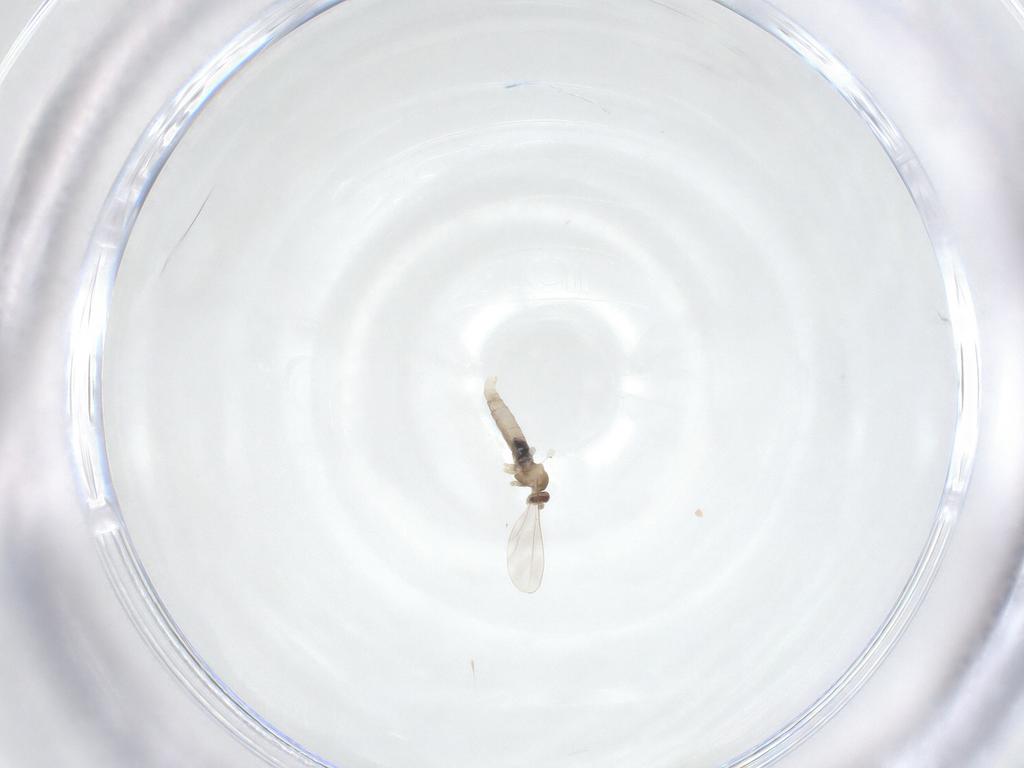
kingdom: Animalia
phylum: Arthropoda
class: Insecta
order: Diptera
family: Cecidomyiidae
